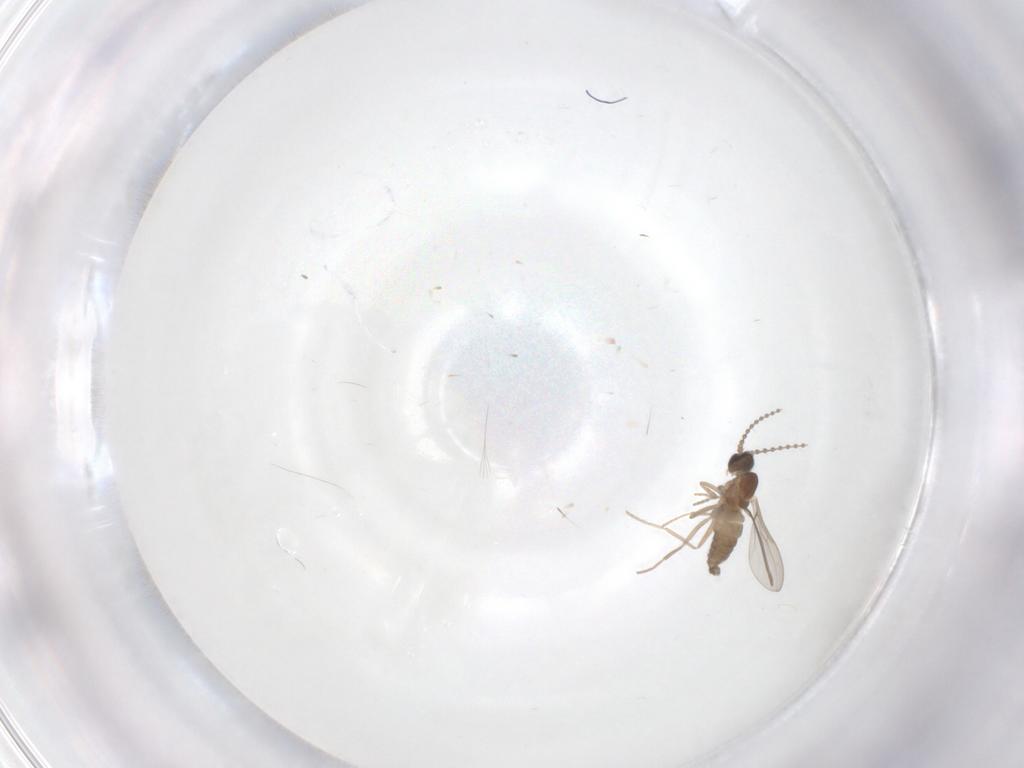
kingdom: Animalia
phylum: Arthropoda
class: Insecta
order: Diptera
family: Cecidomyiidae
